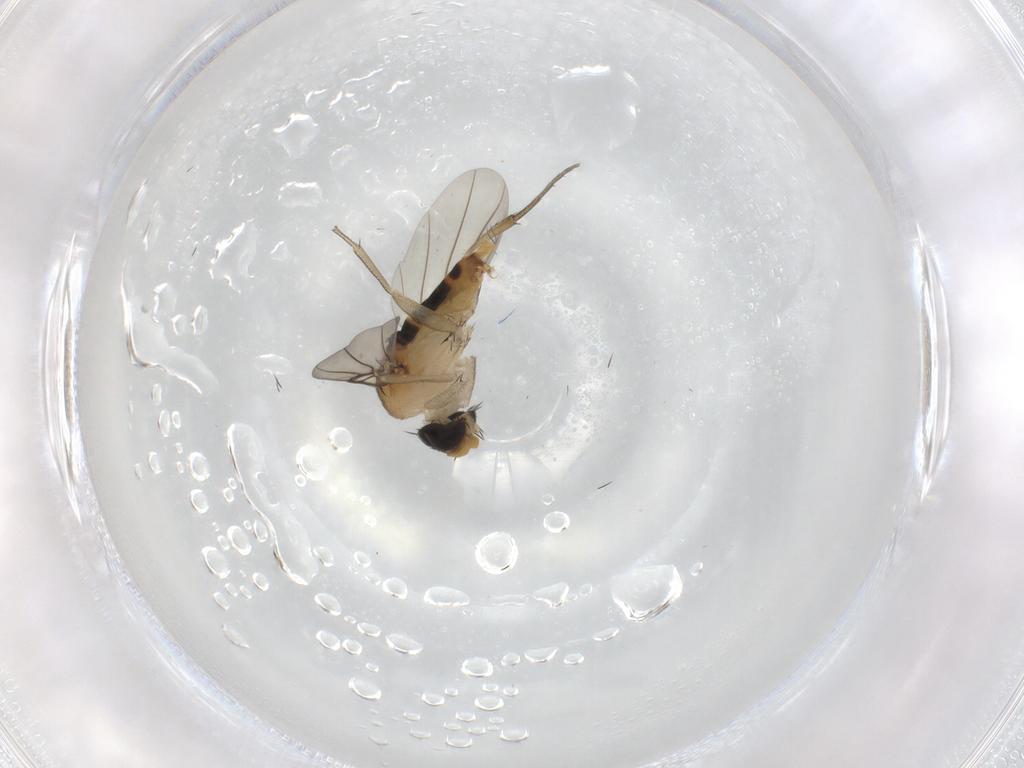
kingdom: Animalia
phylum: Arthropoda
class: Insecta
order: Diptera
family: Phoridae
